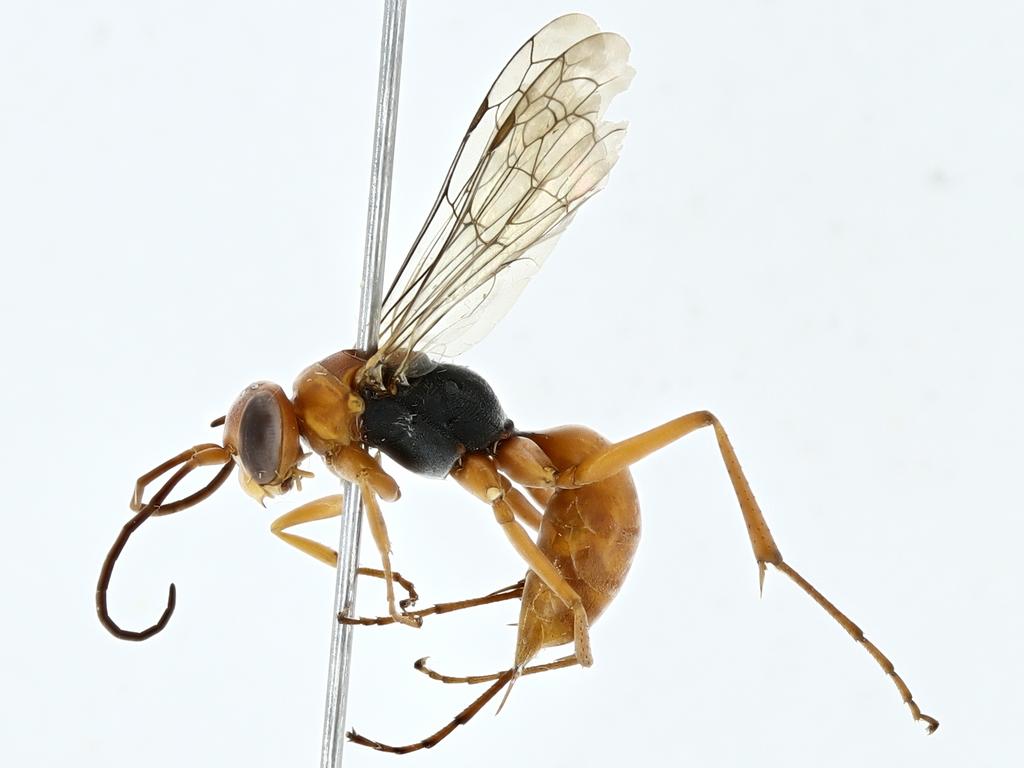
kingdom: Animalia
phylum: Arthropoda
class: Insecta
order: Hymenoptera
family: Pompilidae
